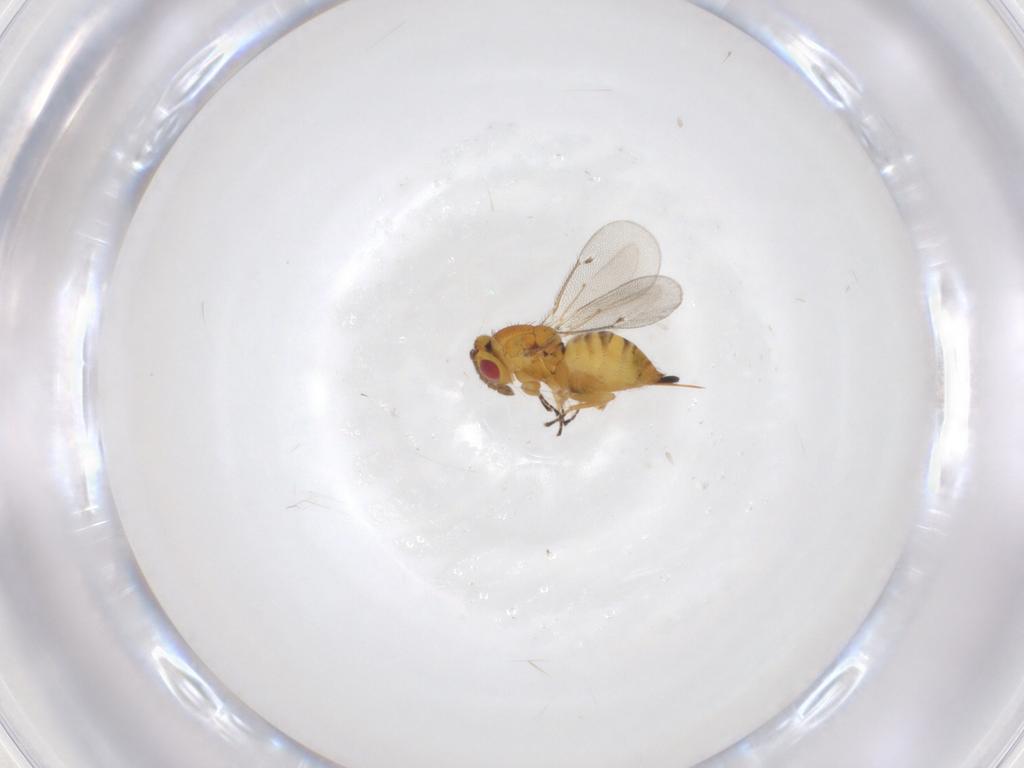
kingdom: Animalia
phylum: Arthropoda
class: Insecta
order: Hymenoptera
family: Eulophidae
